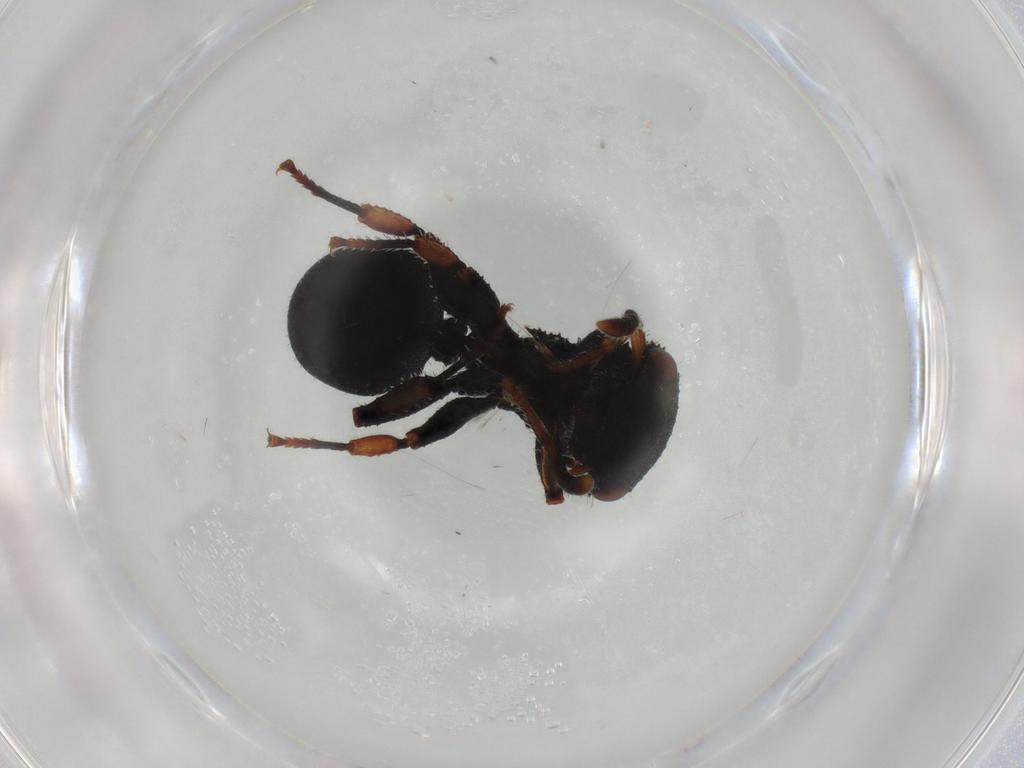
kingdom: Animalia
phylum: Arthropoda
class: Insecta
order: Hymenoptera
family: Formicidae
